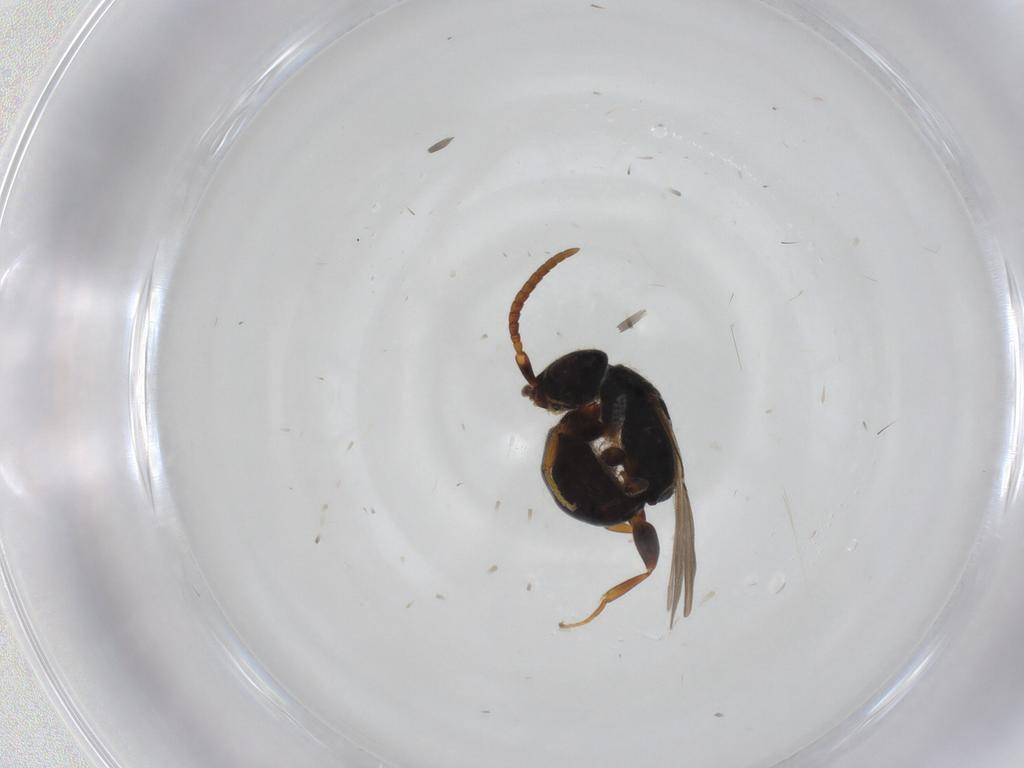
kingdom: Animalia
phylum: Arthropoda
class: Insecta
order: Hymenoptera
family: Bethylidae
